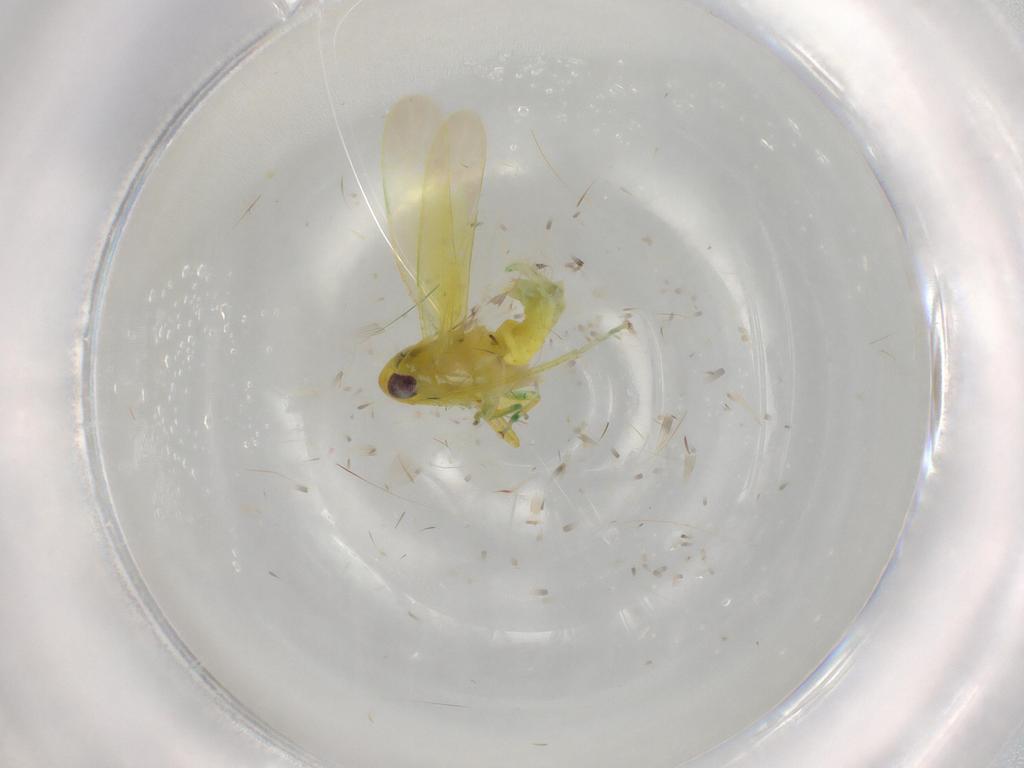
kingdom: Animalia
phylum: Arthropoda
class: Insecta
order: Hemiptera
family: Cicadellidae
